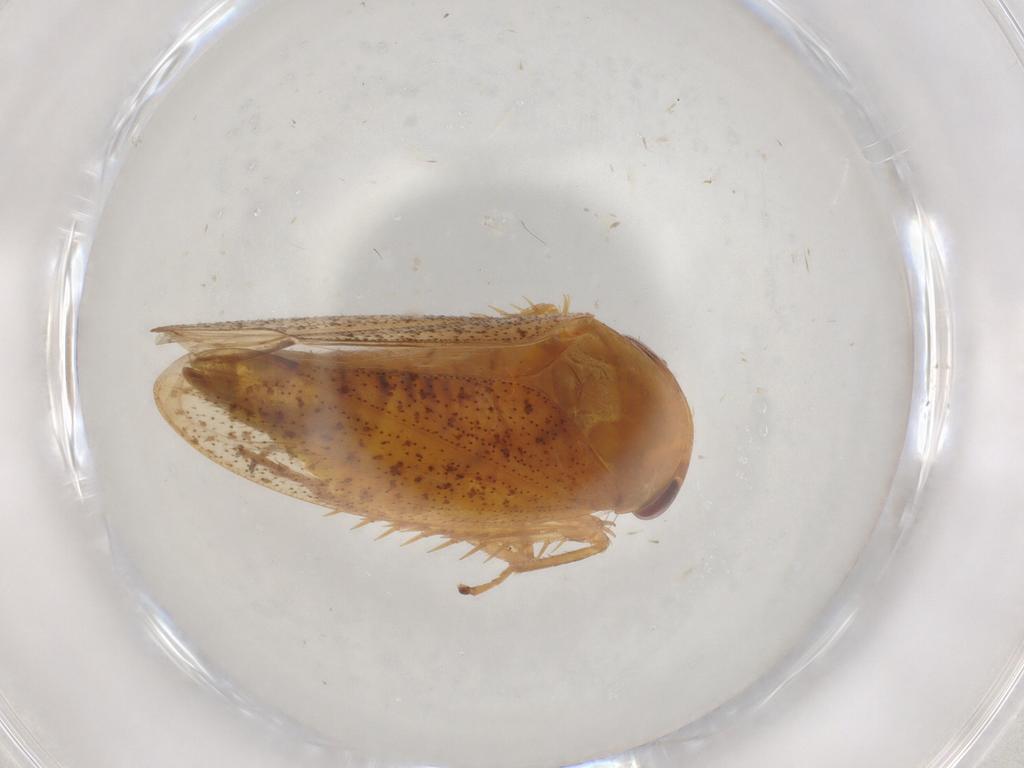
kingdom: Animalia
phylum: Arthropoda
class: Insecta
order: Hemiptera
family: Cicadellidae
